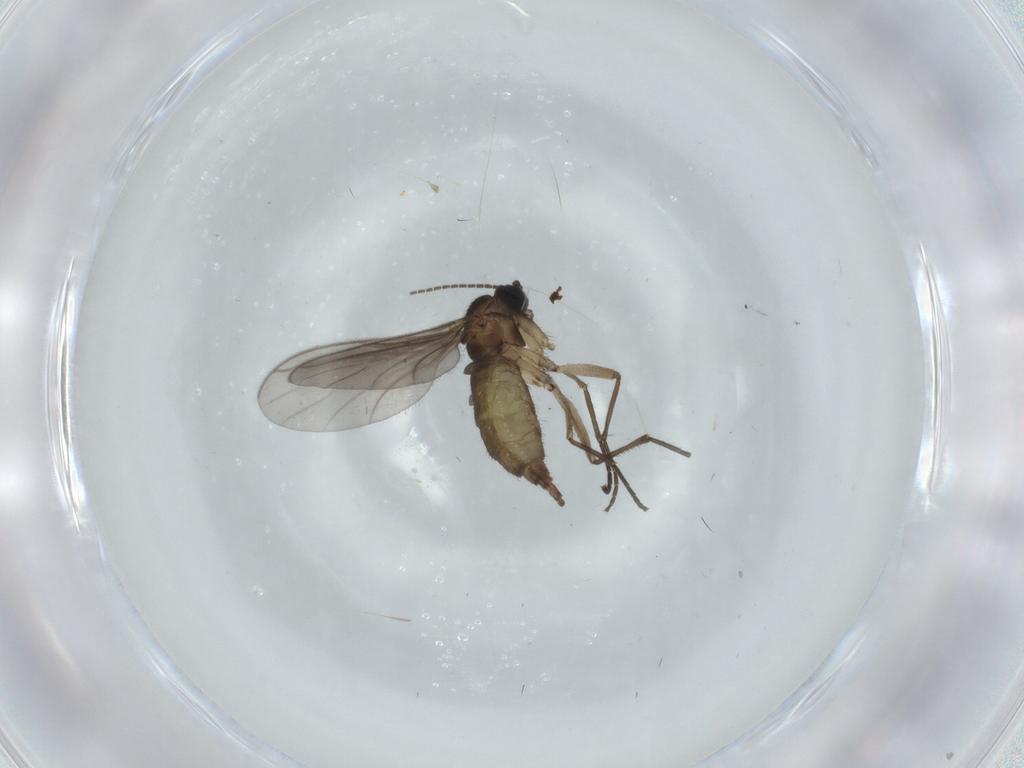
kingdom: Animalia
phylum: Arthropoda
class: Insecta
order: Diptera
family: Sciaridae
